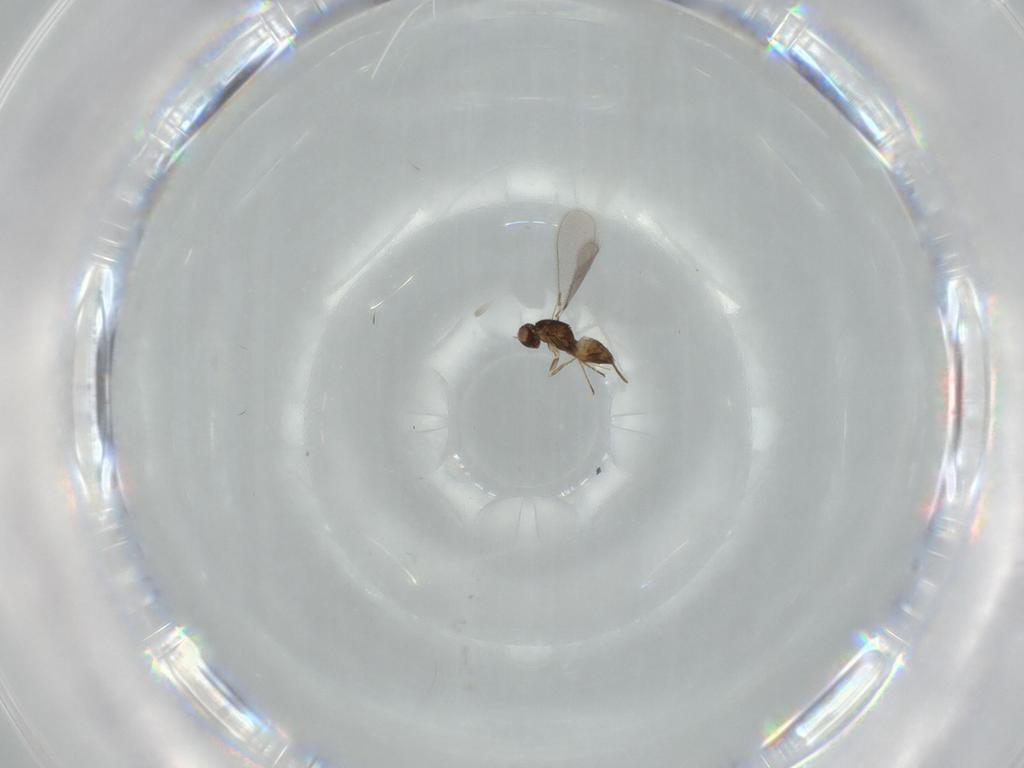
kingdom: Animalia
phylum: Arthropoda
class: Insecta
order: Hymenoptera
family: Mymaridae
